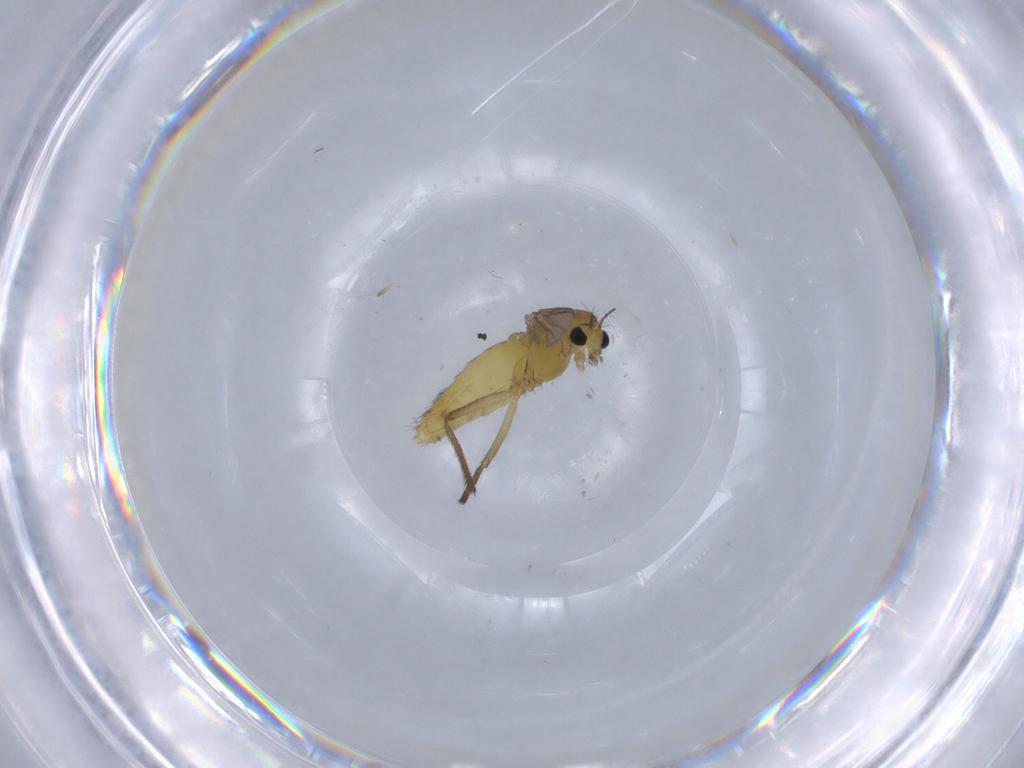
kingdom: Animalia
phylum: Arthropoda
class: Insecta
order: Diptera
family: Chironomidae
